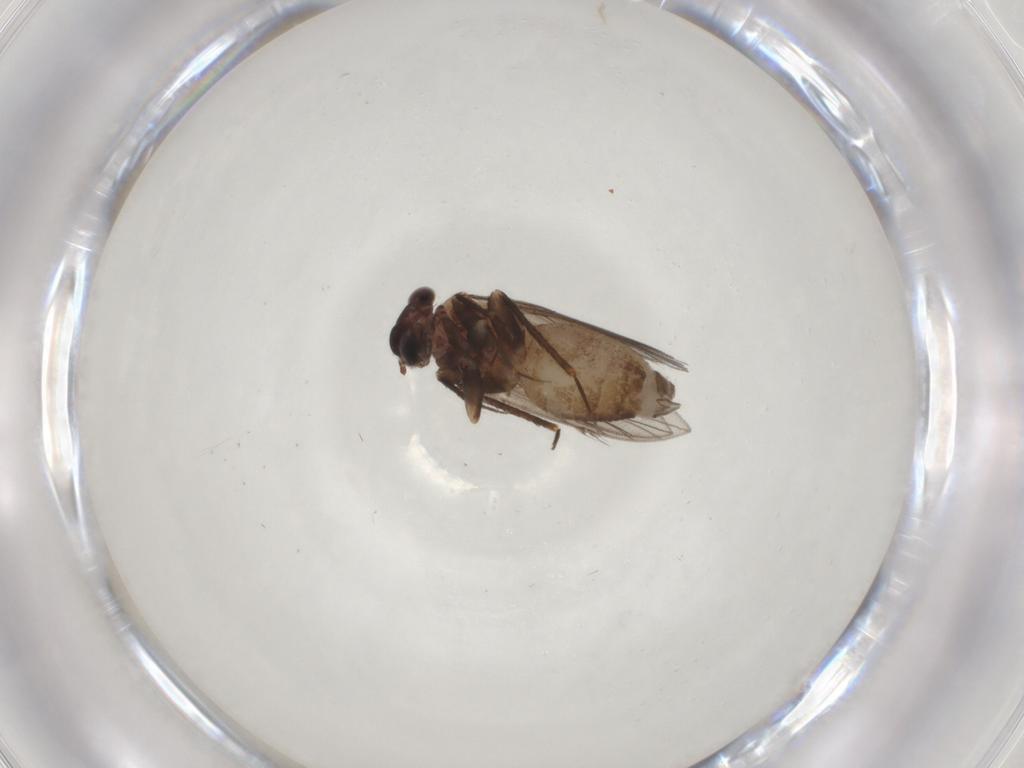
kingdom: Animalia
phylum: Arthropoda
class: Insecta
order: Psocodea
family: Lepidopsocidae
